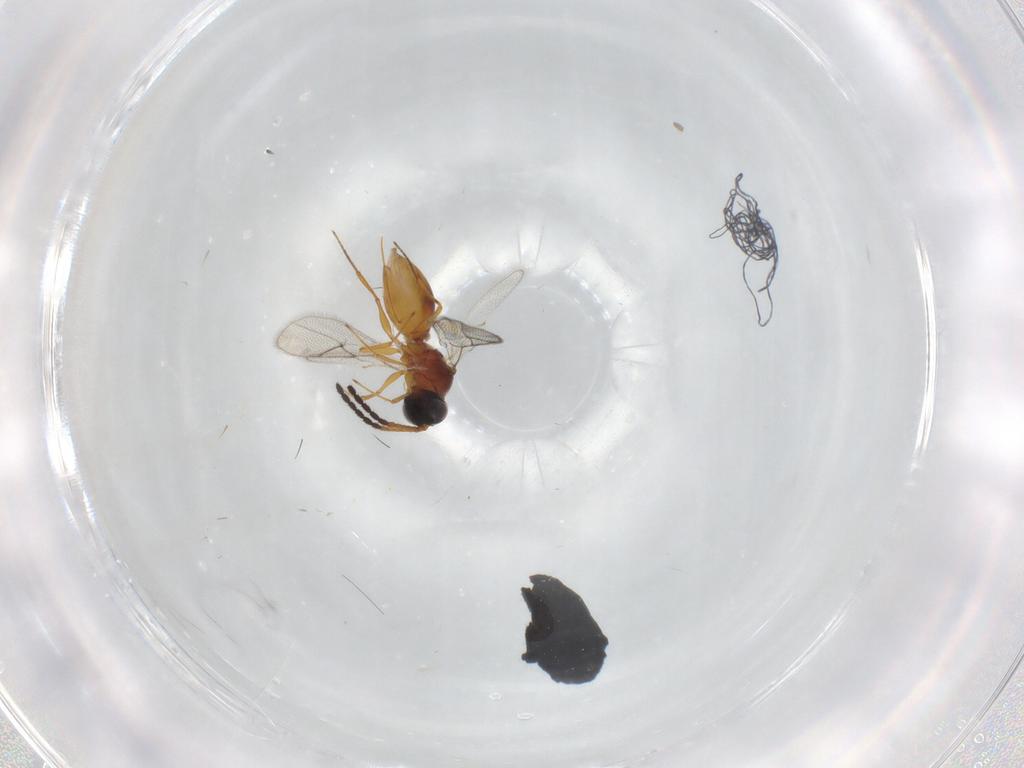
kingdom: Animalia
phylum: Arthropoda
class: Insecta
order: Hymenoptera
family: Figitidae
